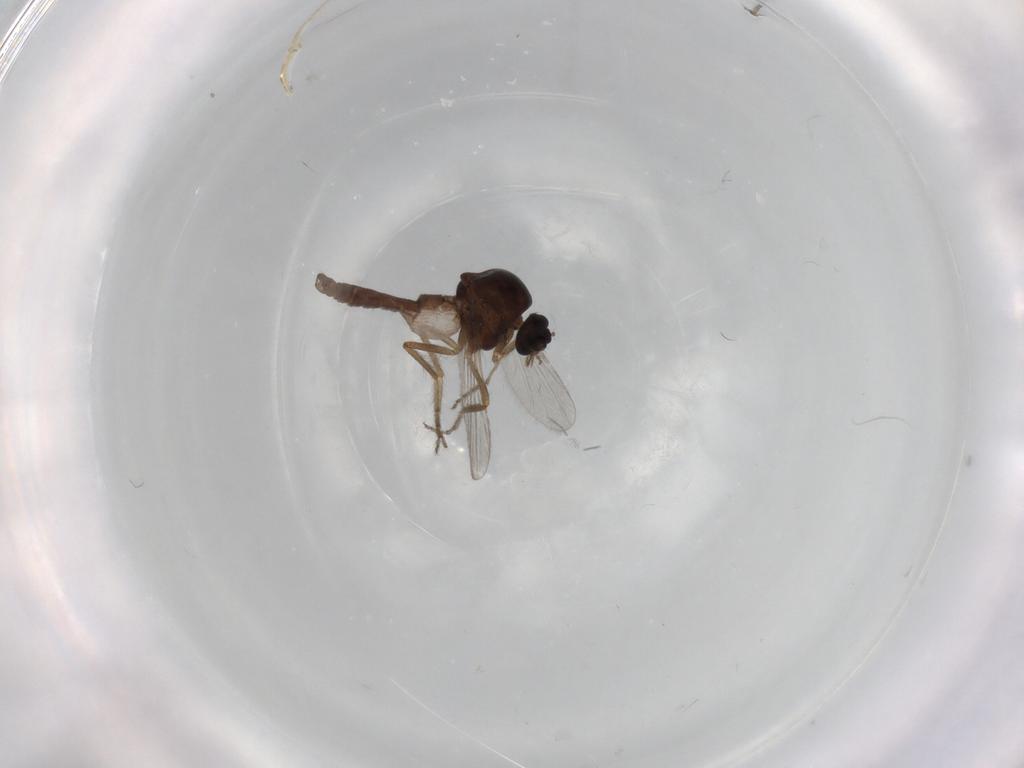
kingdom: Animalia
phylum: Arthropoda
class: Insecta
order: Diptera
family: Ceratopogonidae
